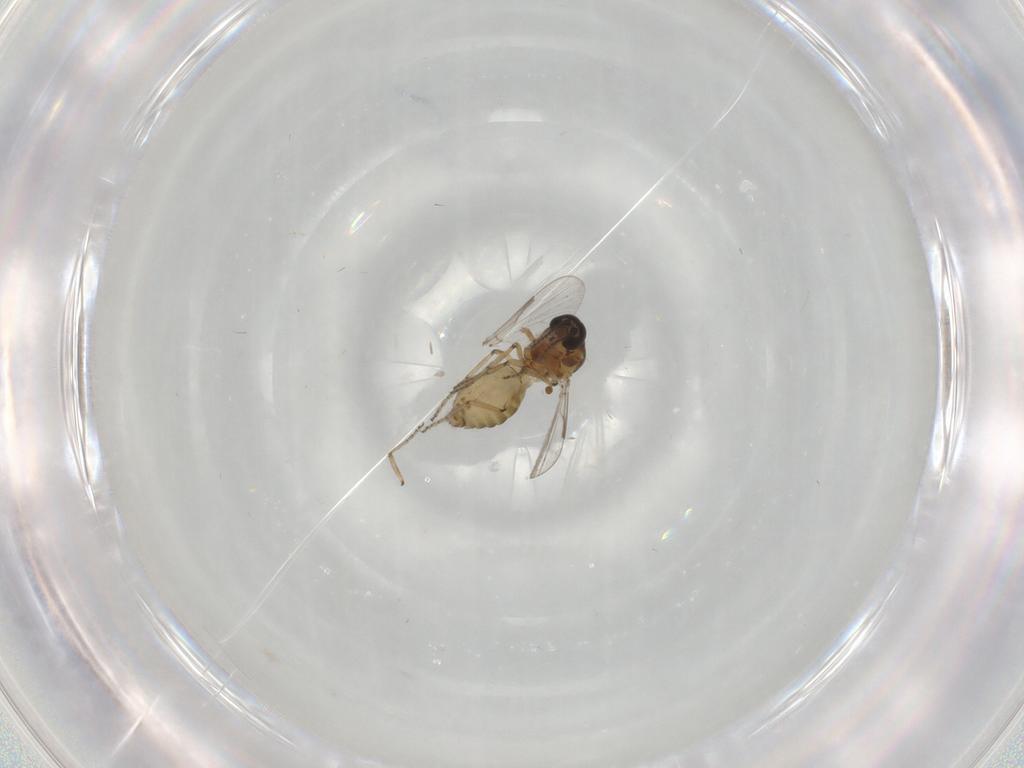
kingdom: Animalia
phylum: Arthropoda
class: Insecta
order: Diptera
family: Ceratopogonidae
